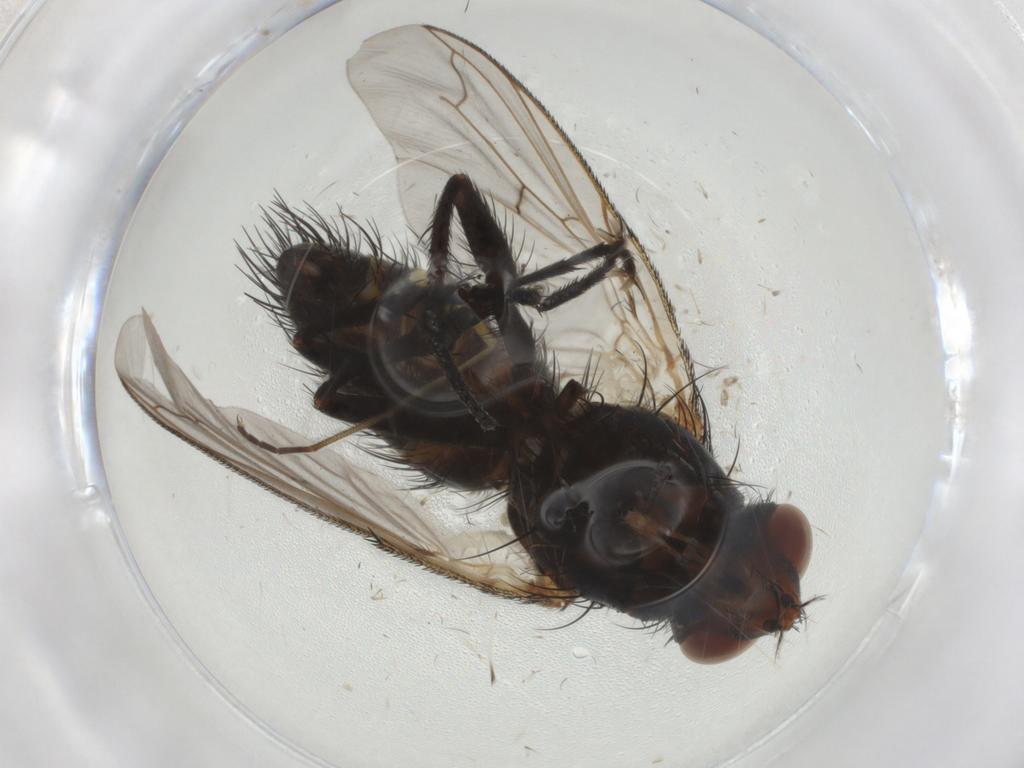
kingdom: Animalia
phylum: Arthropoda
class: Insecta
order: Diptera
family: Tachinidae
